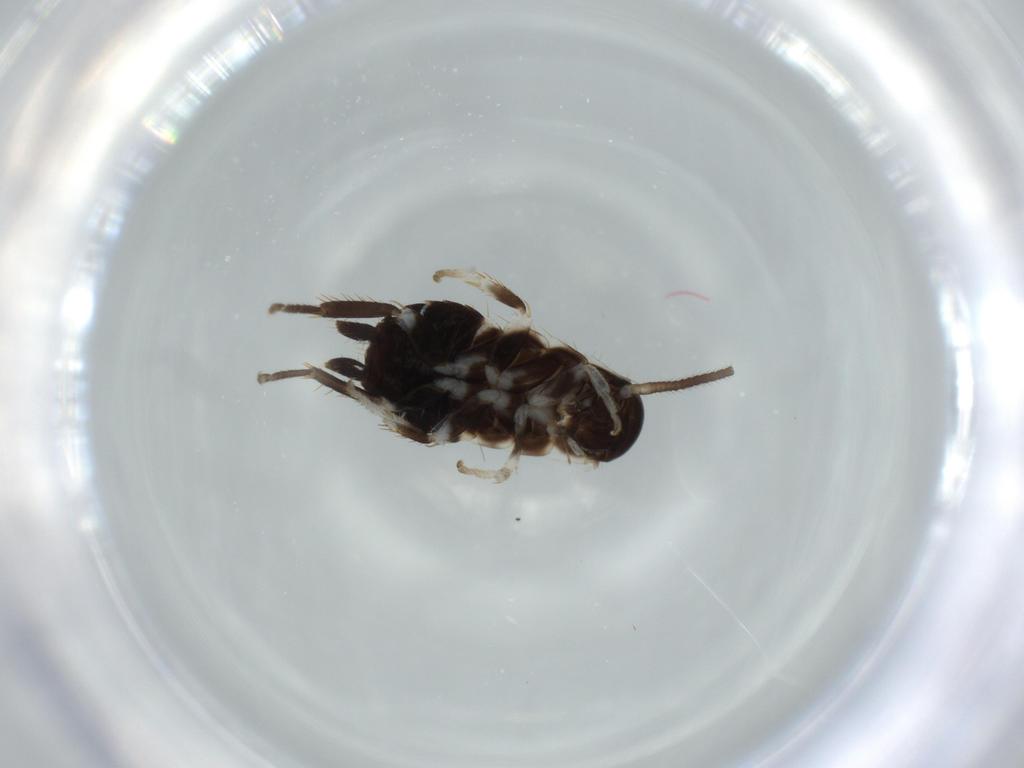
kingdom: Animalia
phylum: Arthropoda
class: Insecta
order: Blattodea
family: Ectobiidae
